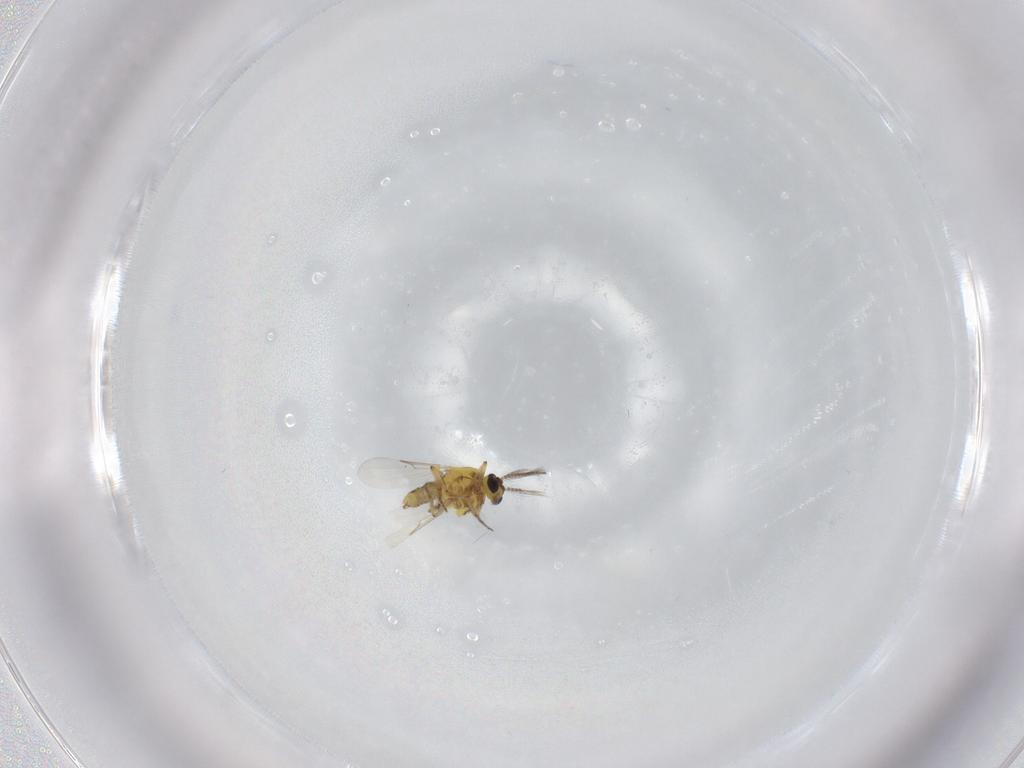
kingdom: Animalia
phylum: Arthropoda
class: Insecta
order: Diptera
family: Ceratopogonidae
